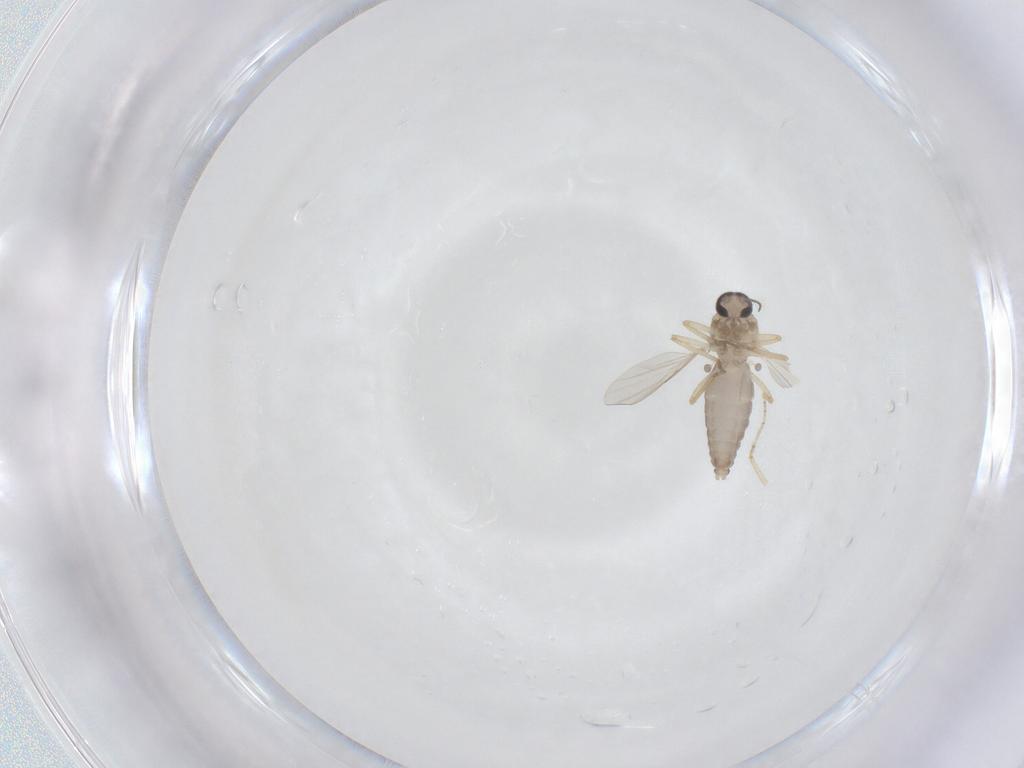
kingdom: Animalia
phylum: Arthropoda
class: Insecta
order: Diptera
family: Ceratopogonidae
